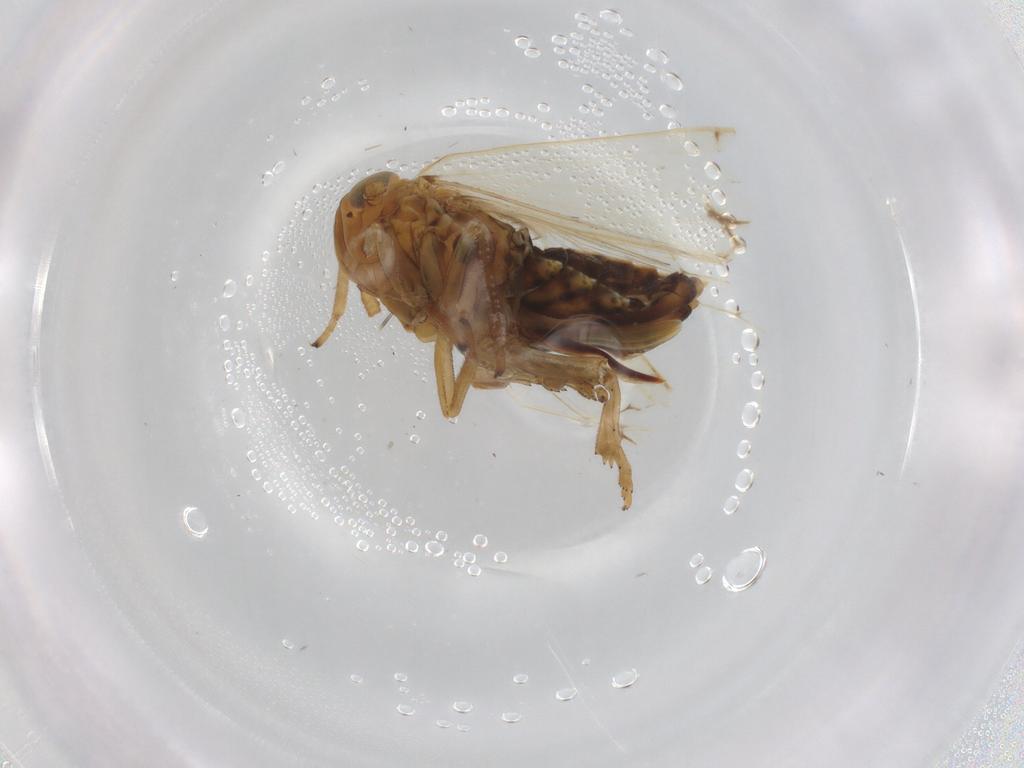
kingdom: Animalia
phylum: Arthropoda
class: Insecta
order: Hemiptera
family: Delphacidae
